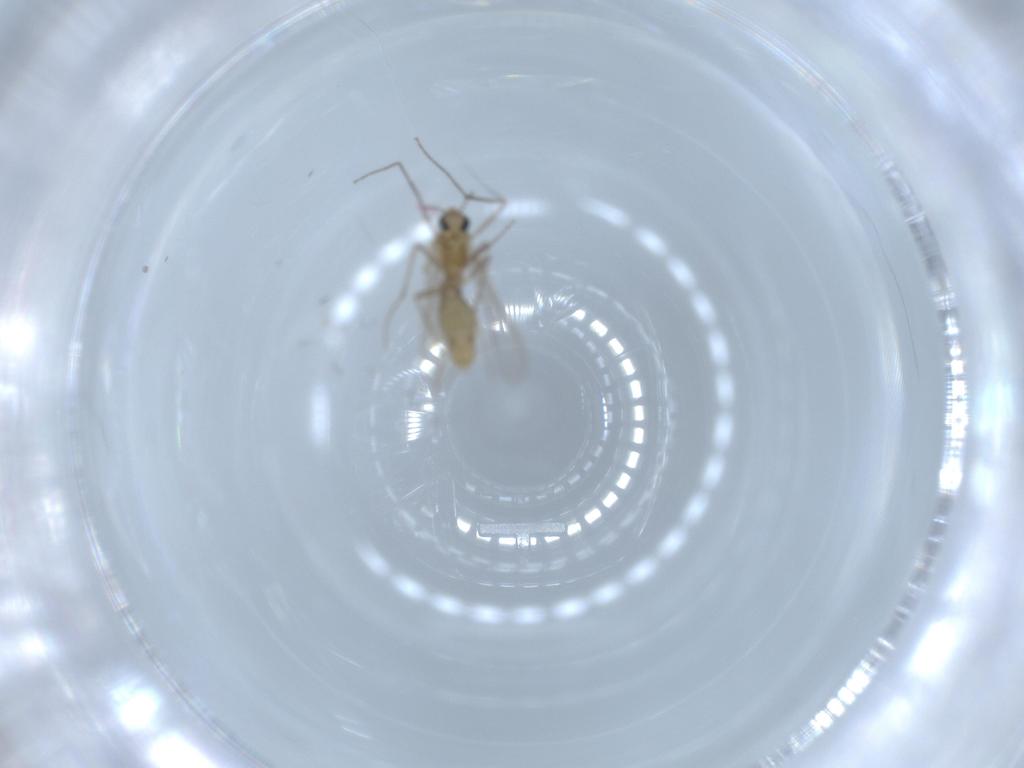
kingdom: Animalia
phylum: Arthropoda
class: Insecta
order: Diptera
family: Chironomidae
